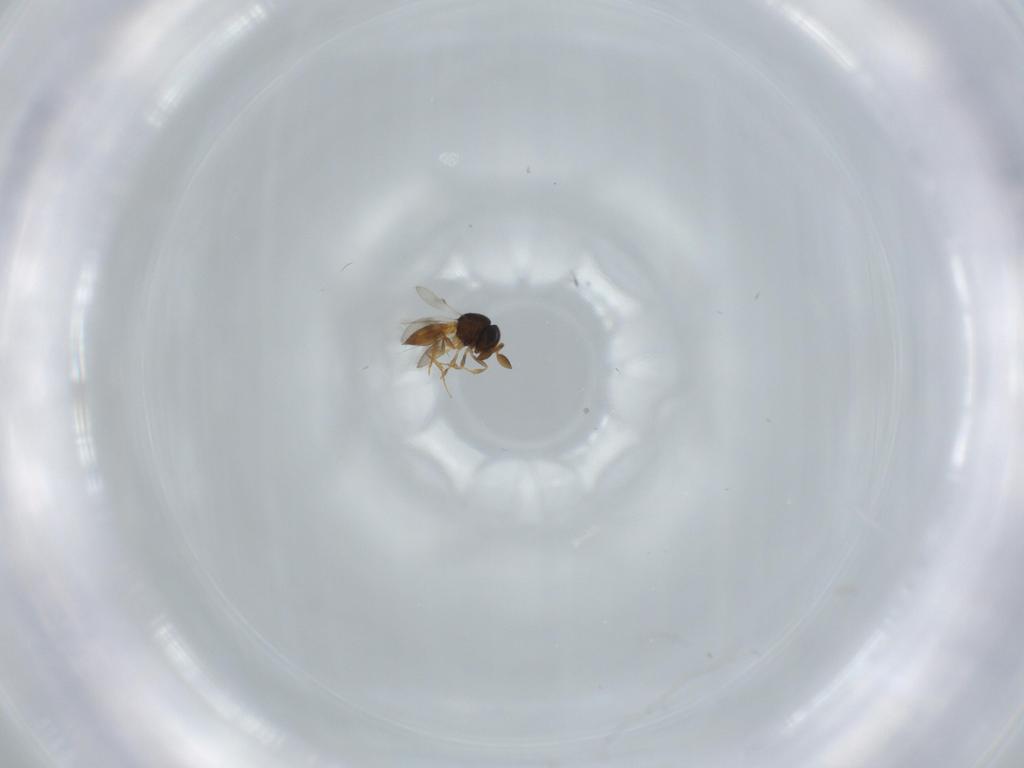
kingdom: Animalia
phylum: Arthropoda
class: Insecta
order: Hymenoptera
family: Scelionidae
